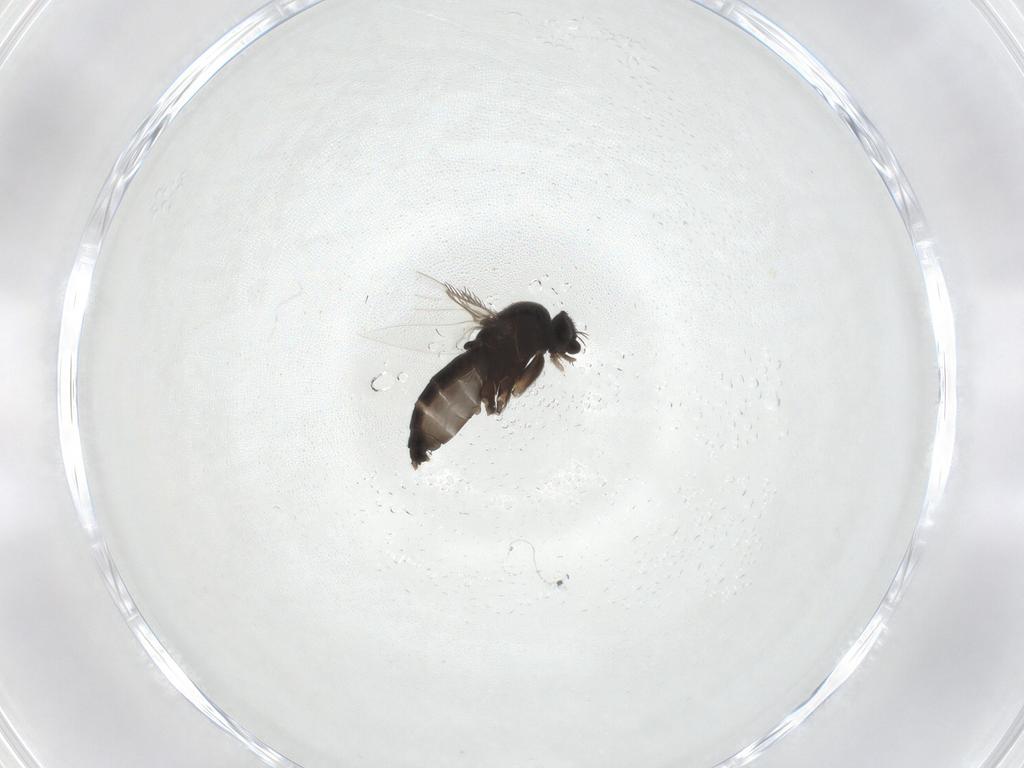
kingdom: Animalia
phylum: Arthropoda
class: Insecta
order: Diptera
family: Phoridae
